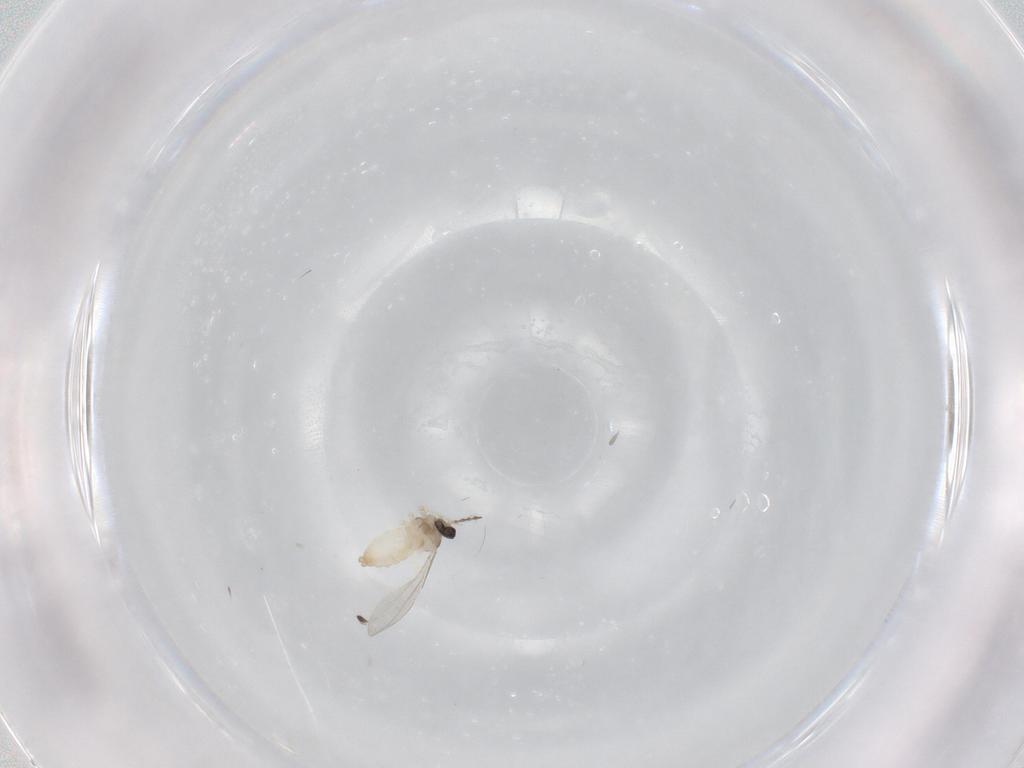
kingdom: Animalia
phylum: Arthropoda
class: Insecta
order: Diptera
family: Cecidomyiidae
